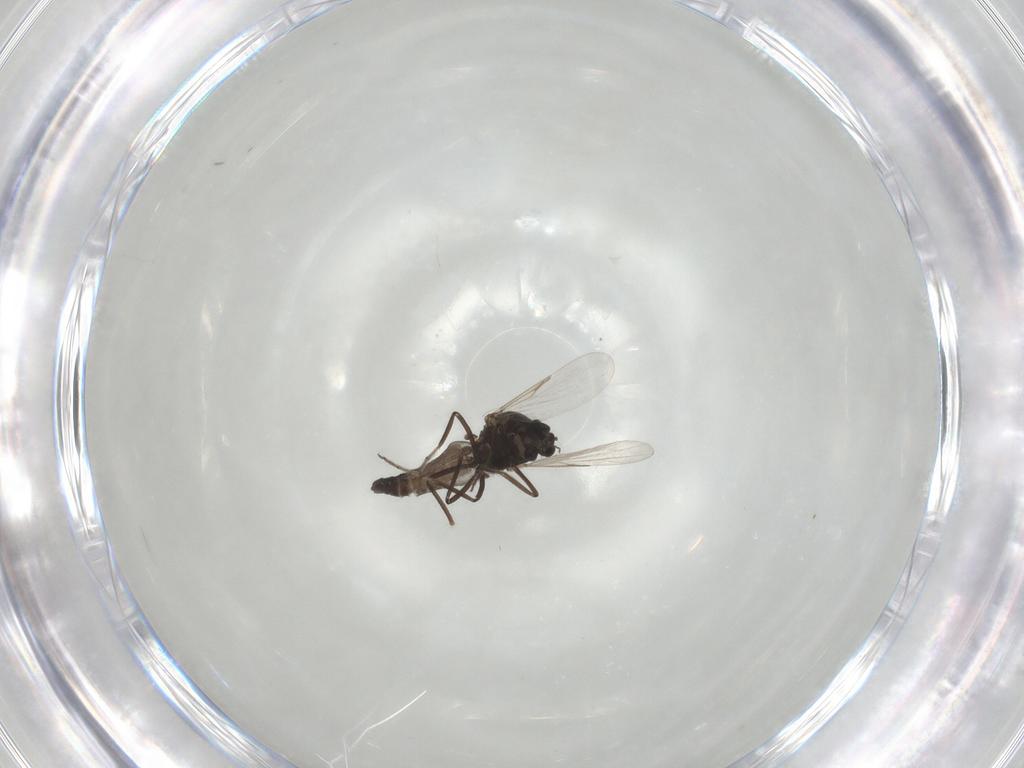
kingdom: Animalia
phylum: Arthropoda
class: Insecta
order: Diptera
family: Ceratopogonidae
